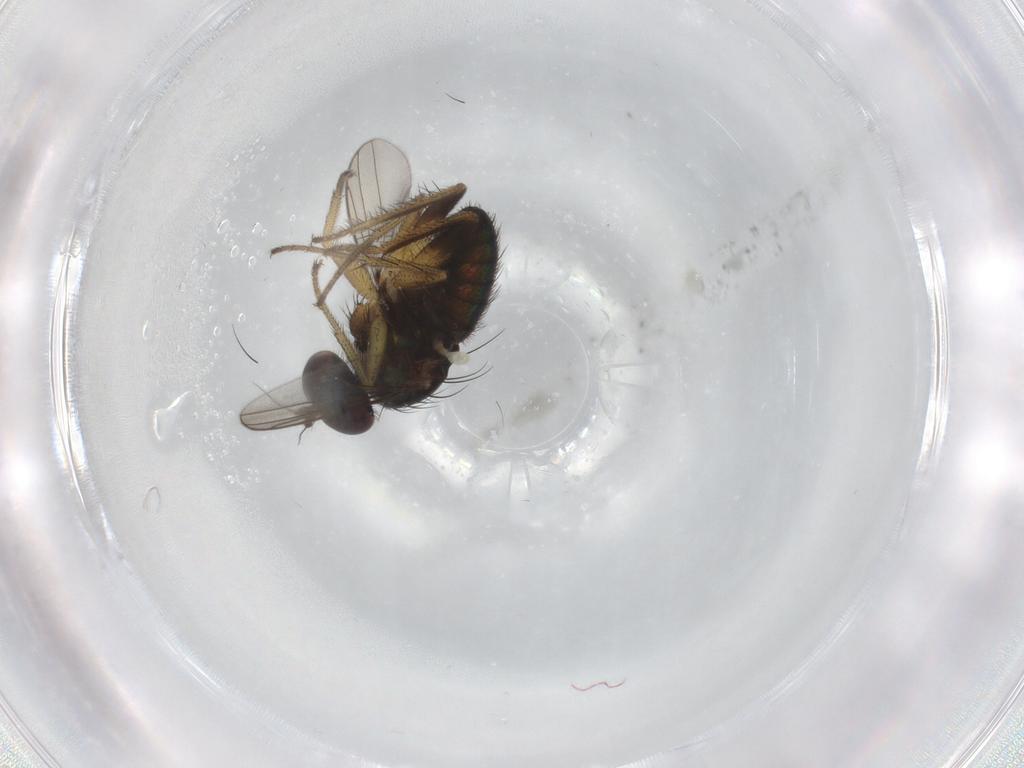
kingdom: Animalia
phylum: Arthropoda
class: Insecta
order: Diptera
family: Dolichopodidae
